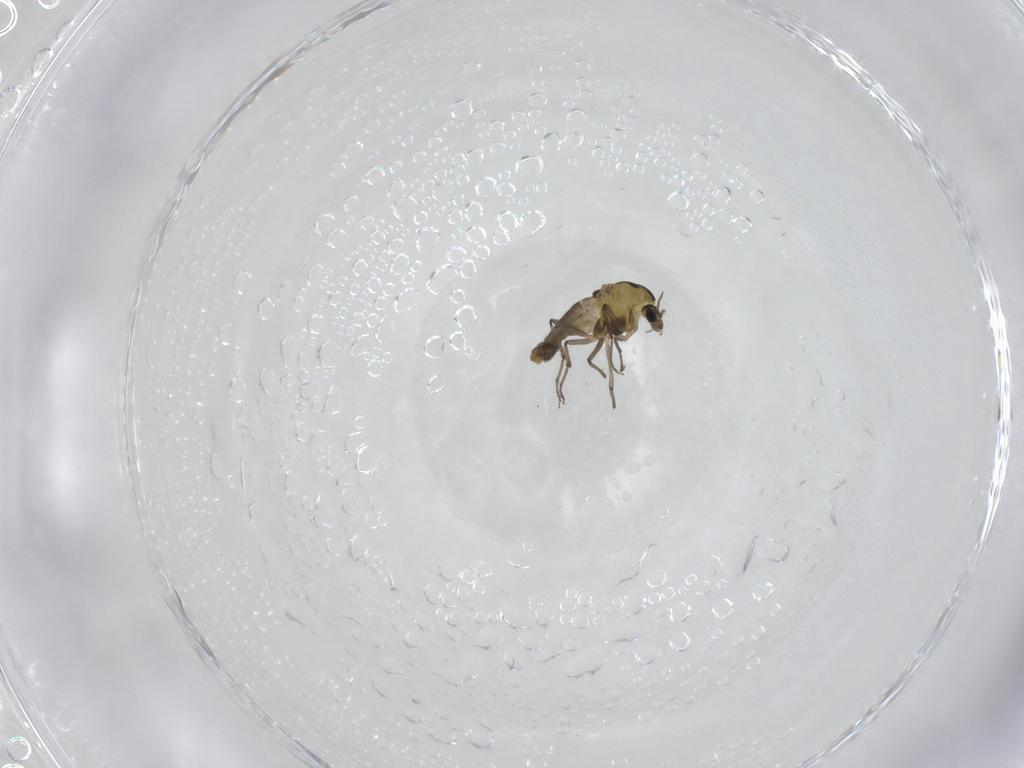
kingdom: Animalia
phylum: Arthropoda
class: Insecta
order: Diptera
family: Chironomidae
